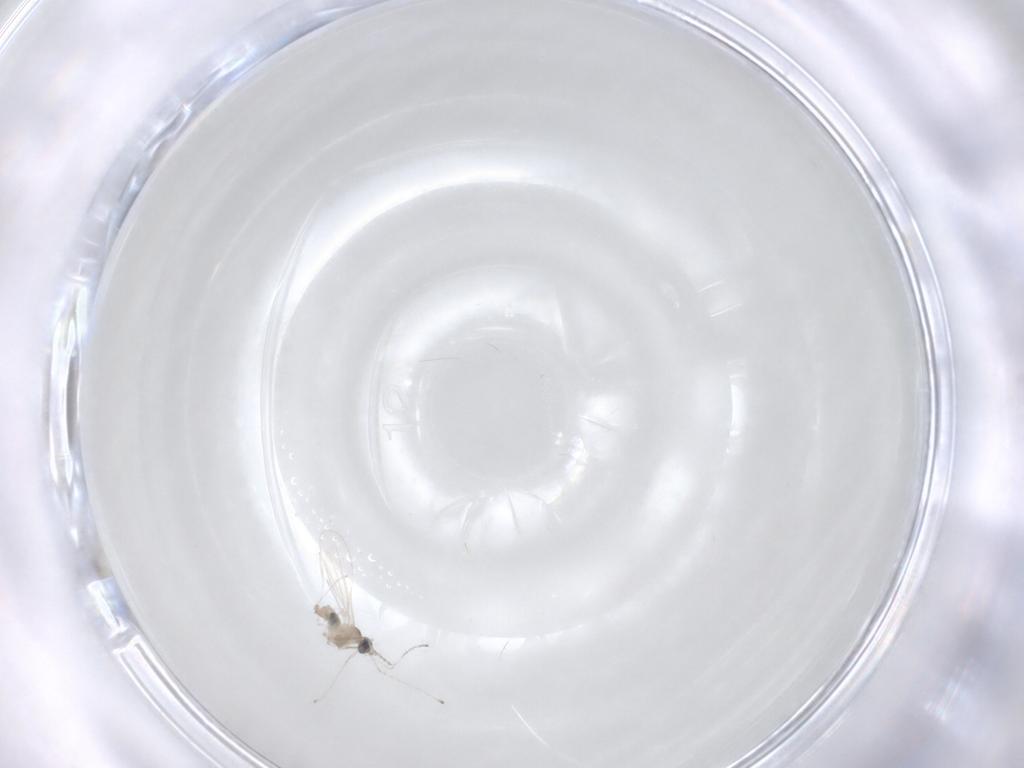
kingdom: Animalia
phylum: Arthropoda
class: Insecta
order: Diptera
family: Cecidomyiidae
